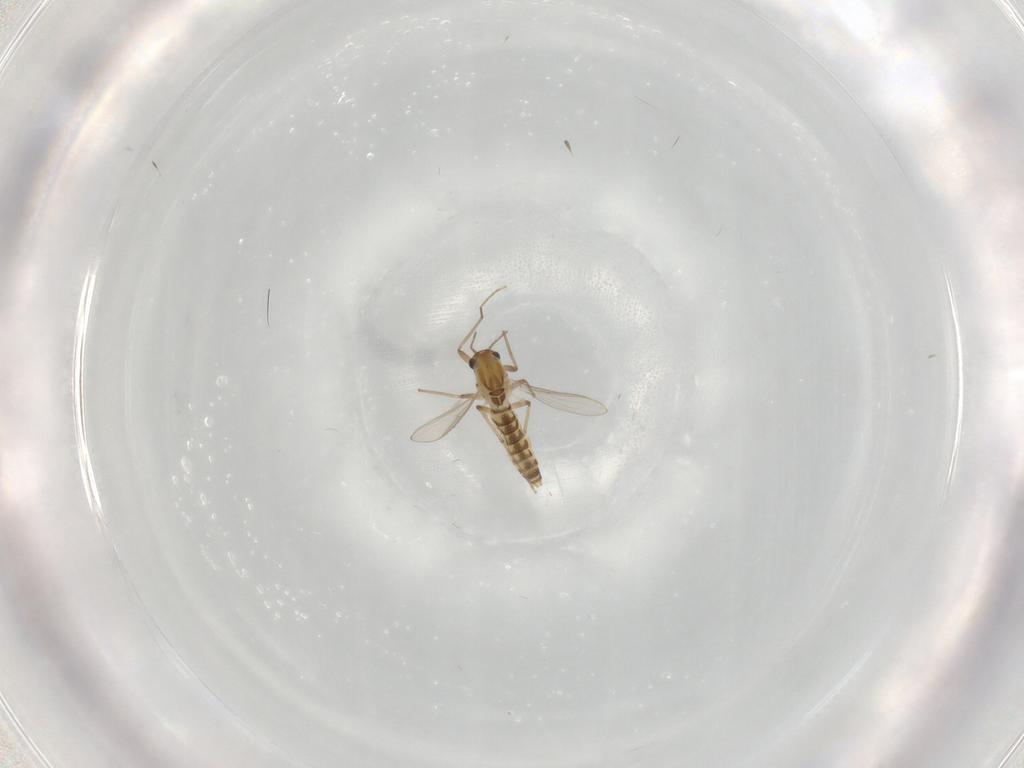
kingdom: Animalia
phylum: Arthropoda
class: Insecta
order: Diptera
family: Chironomidae
